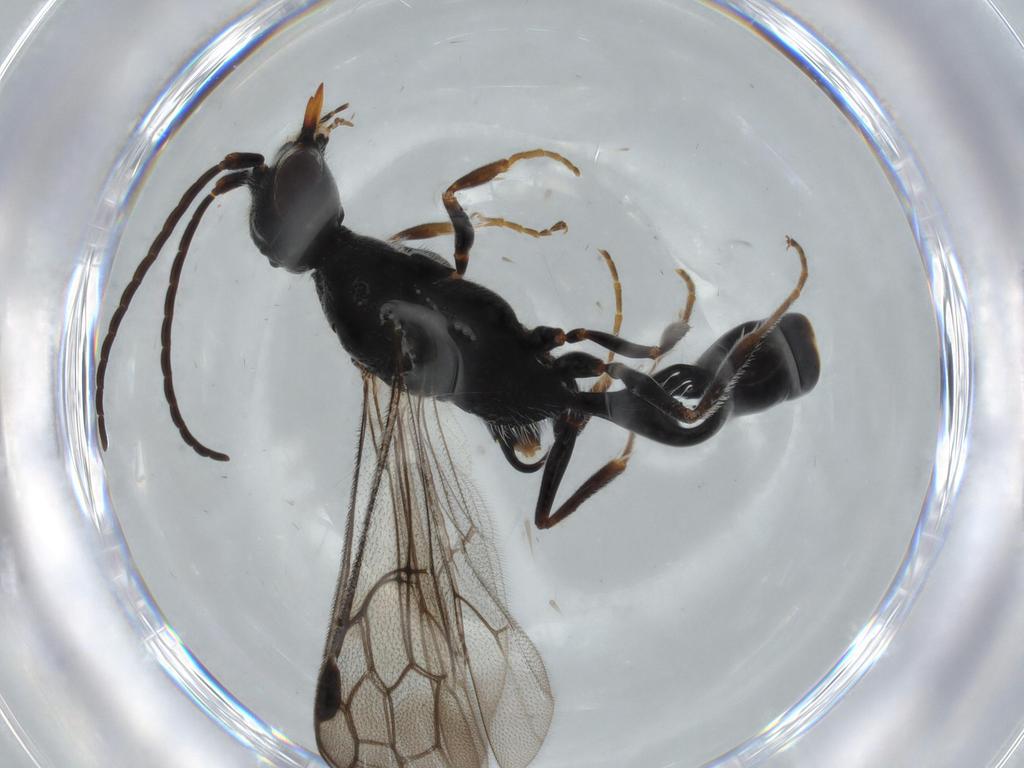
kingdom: Animalia
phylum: Arthropoda
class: Insecta
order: Hymenoptera
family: Thynnidae
